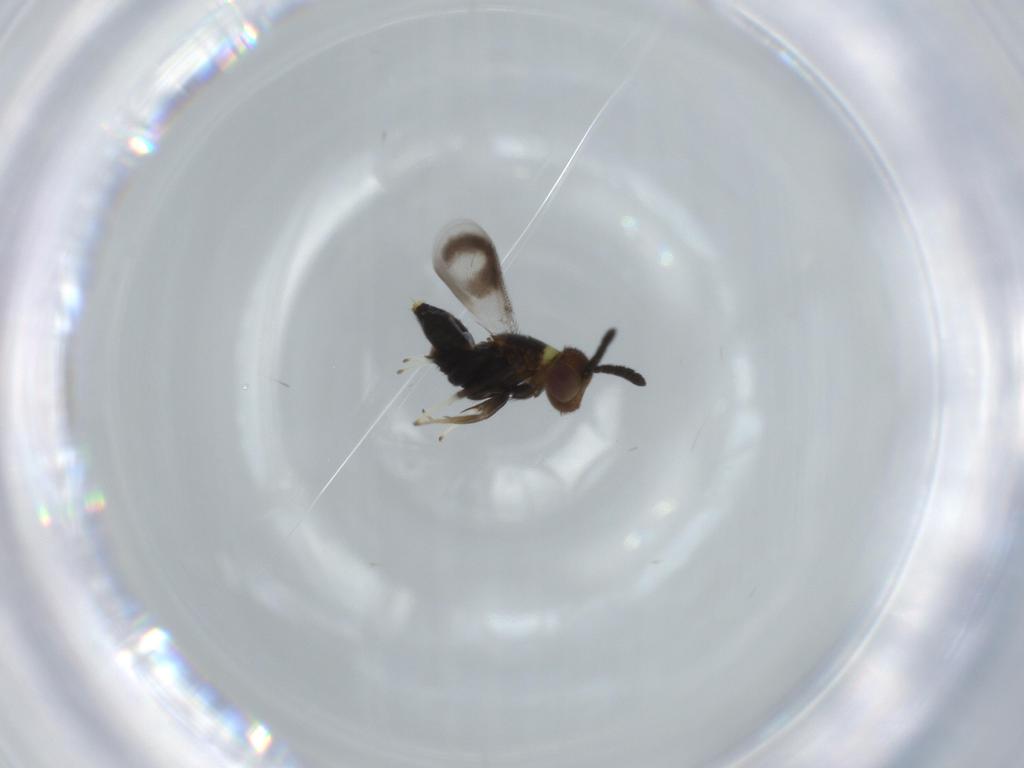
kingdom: Animalia
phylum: Arthropoda
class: Insecta
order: Hymenoptera
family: Aphelinidae
